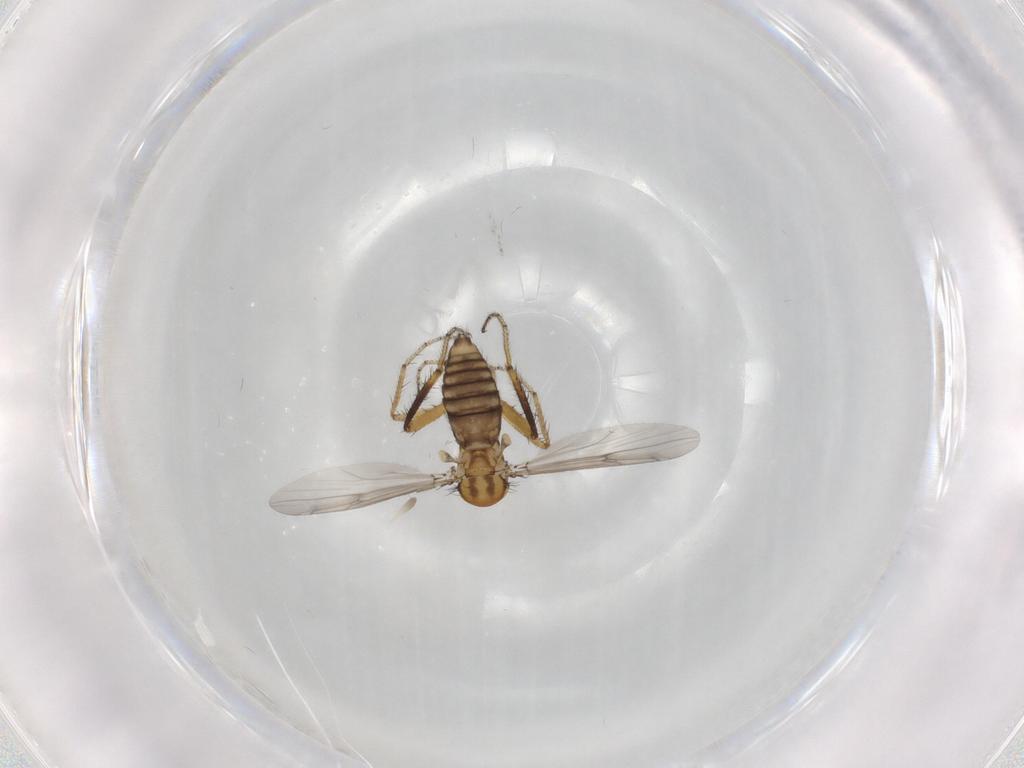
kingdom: Animalia
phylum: Arthropoda
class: Insecta
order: Diptera
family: Ceratopogonidae
